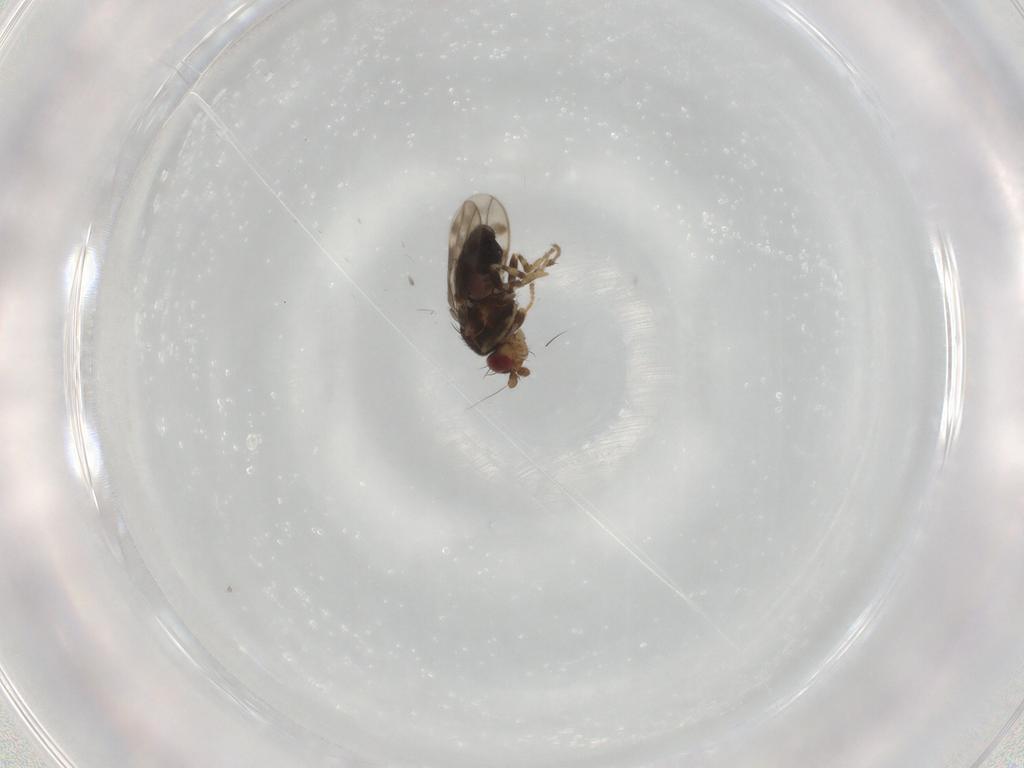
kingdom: Animalia
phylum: Arthropoda
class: Insecta
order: Diptera
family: Sphaeroceridae
